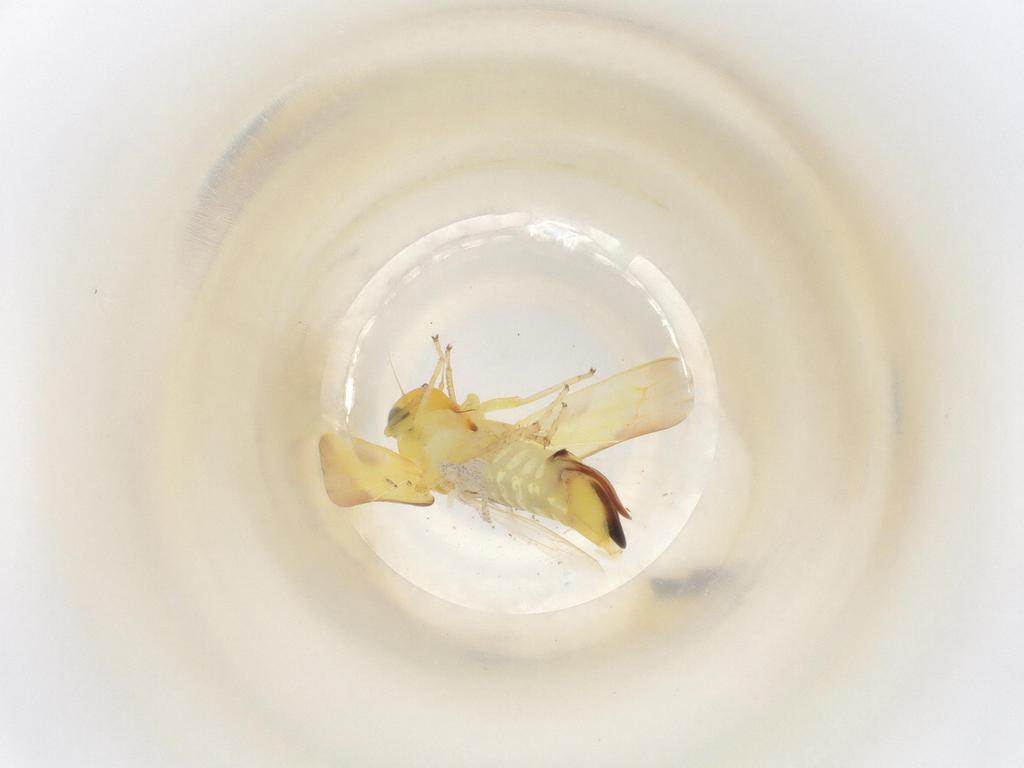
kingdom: Animalia
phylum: Arthropoda
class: Insecta
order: Hemiptera
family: Cicadellidae
